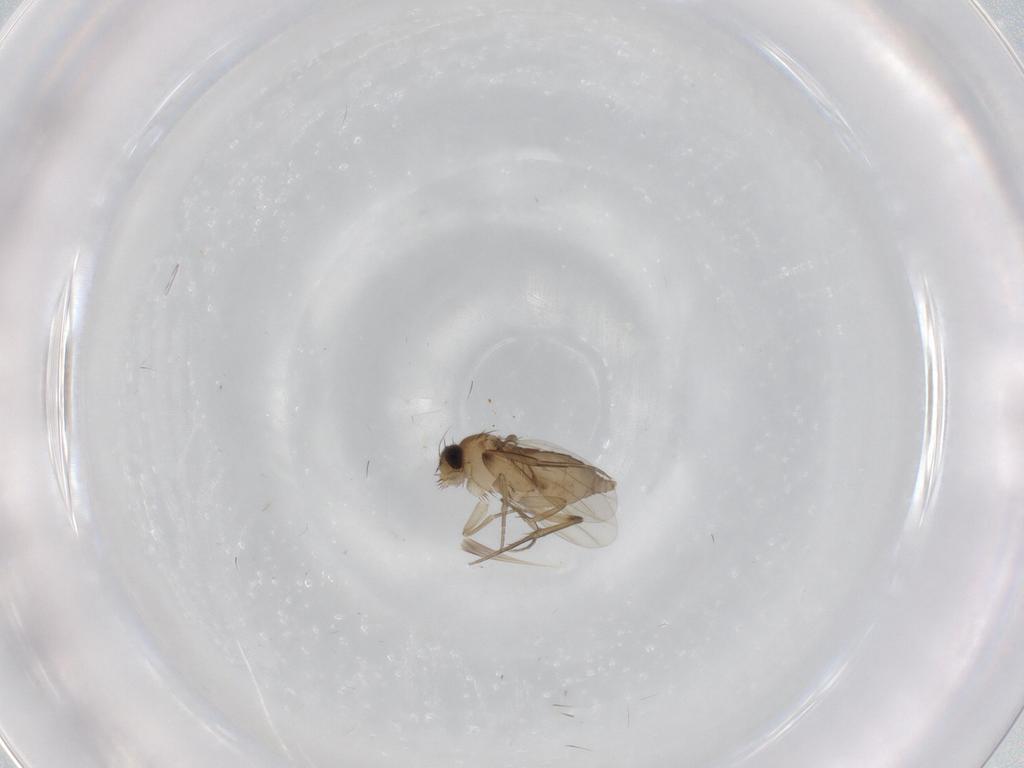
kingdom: Animalia
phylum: Arthropoda
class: Insecta
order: Diptera
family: Phoridae
